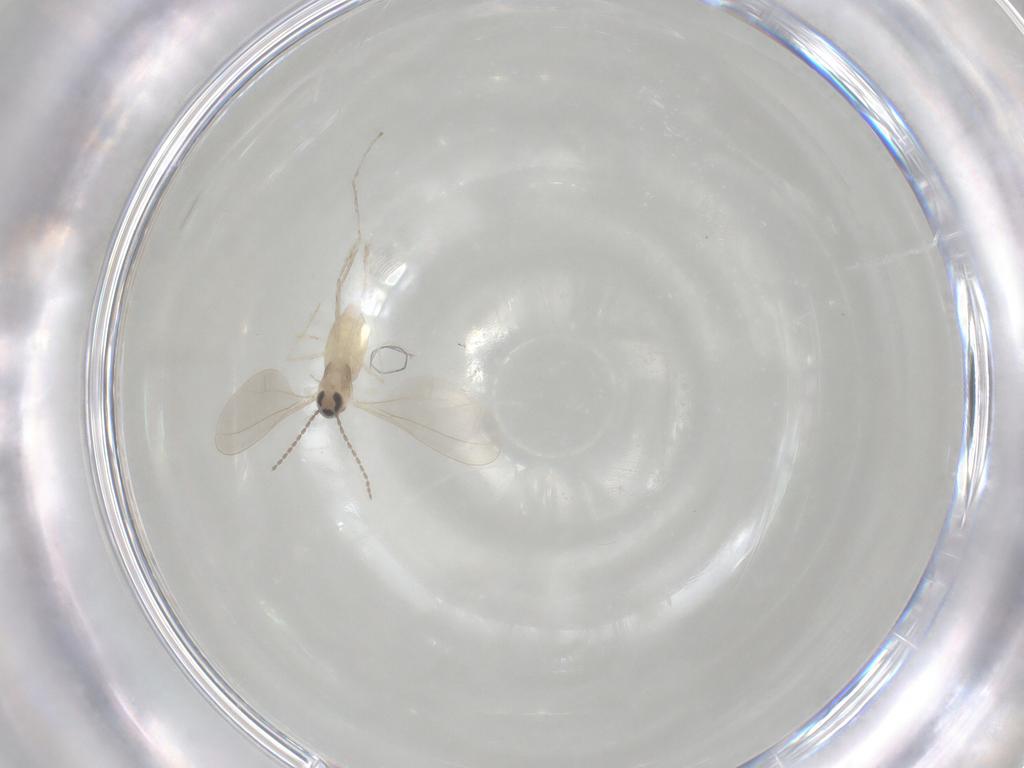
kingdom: Animalia
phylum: Arthropoda
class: Insecta
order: Diptera
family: Cecidomyiidae
